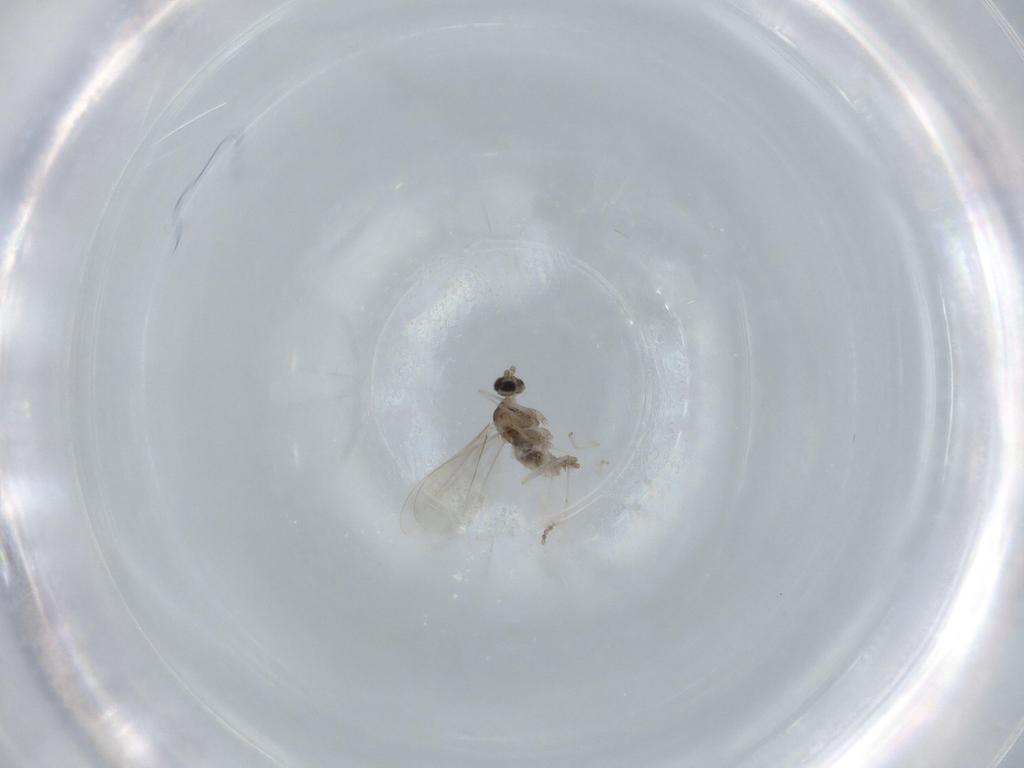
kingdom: Animalia
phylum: Arthropoda
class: Insecta
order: Diptera
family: Cecidomyiidae
